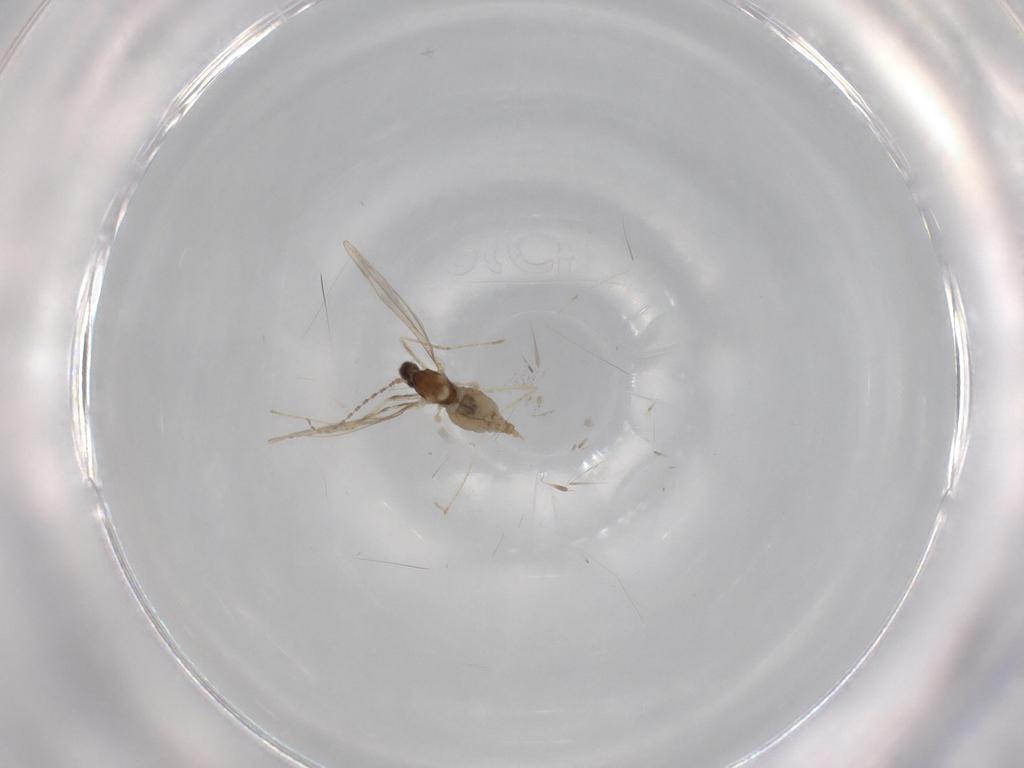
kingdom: Animalia
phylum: Arthropoda
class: Insecta
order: Diptera
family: Cecidomyiidae
